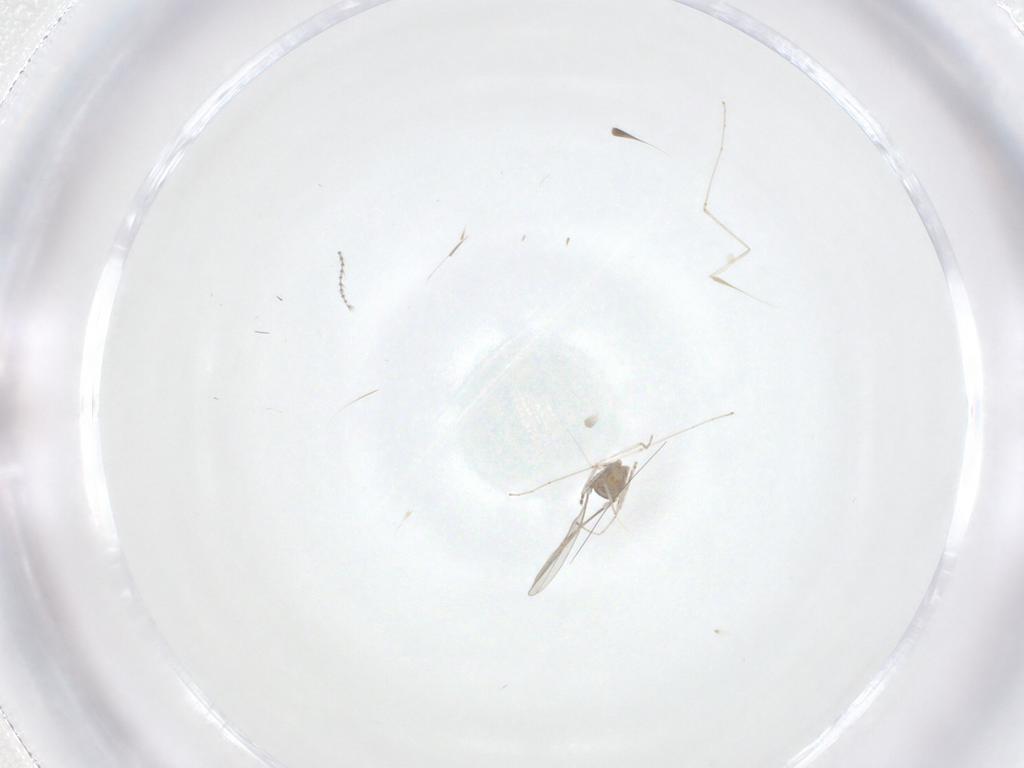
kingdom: Animalia
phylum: Arthropoda
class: Insecta
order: Diptera
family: Cecidomyiidae
